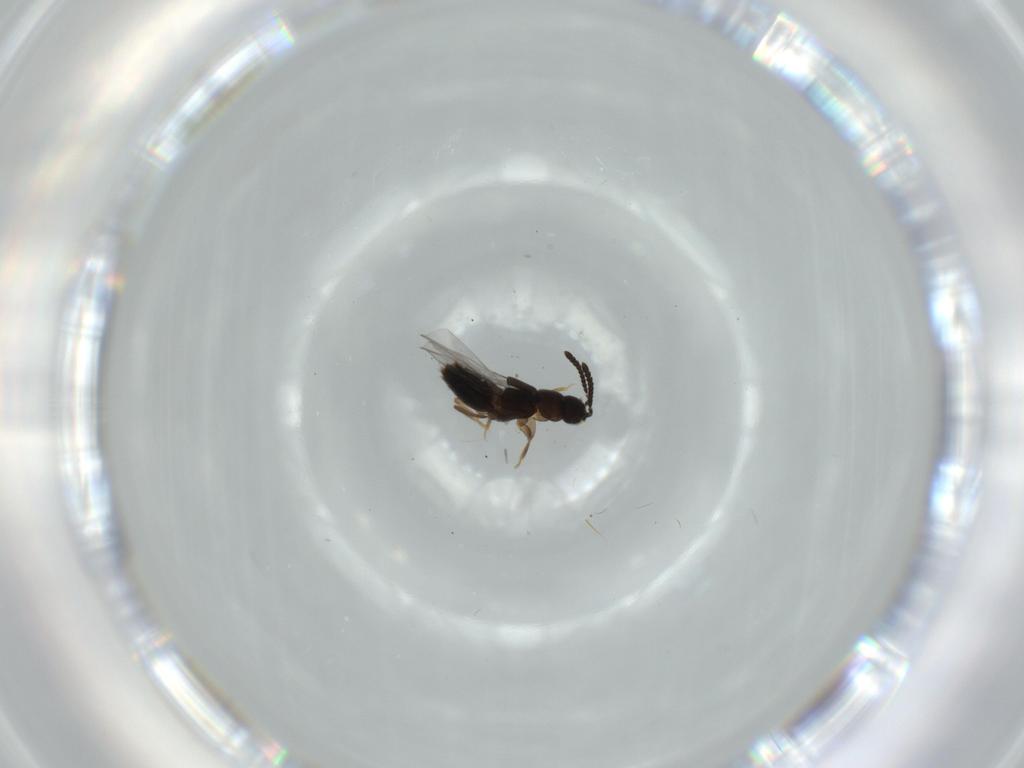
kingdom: Animalia
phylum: Arthropoda
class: Insecta
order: Coleoptera
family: Staphylinidae
